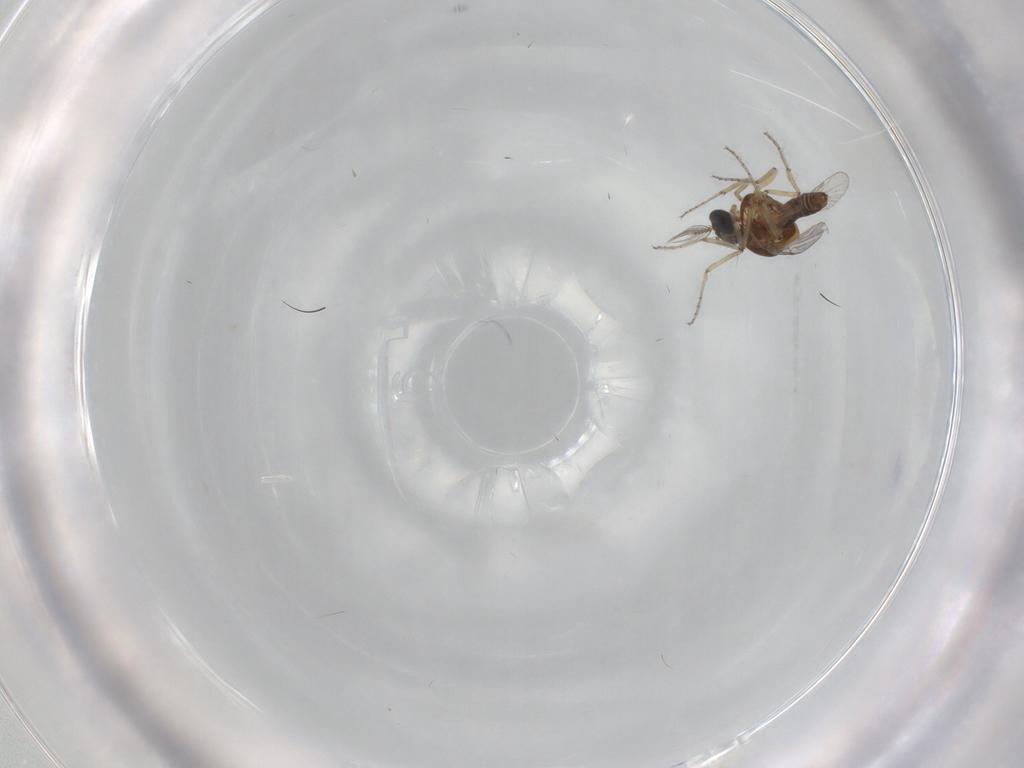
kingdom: Animalia
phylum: Arthropoda
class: Insecta
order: Diptera
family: Ceratopogonidae
